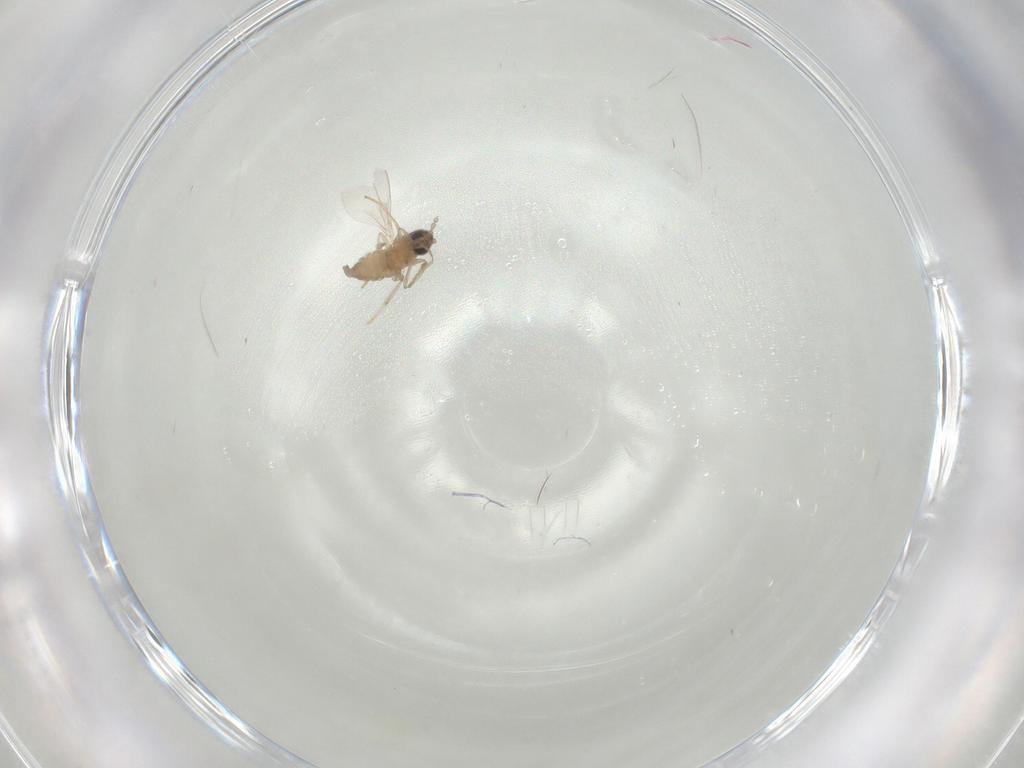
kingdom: Animalia
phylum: Arthropoda
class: Insecta
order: Diptera
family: Cecidomyiidae
